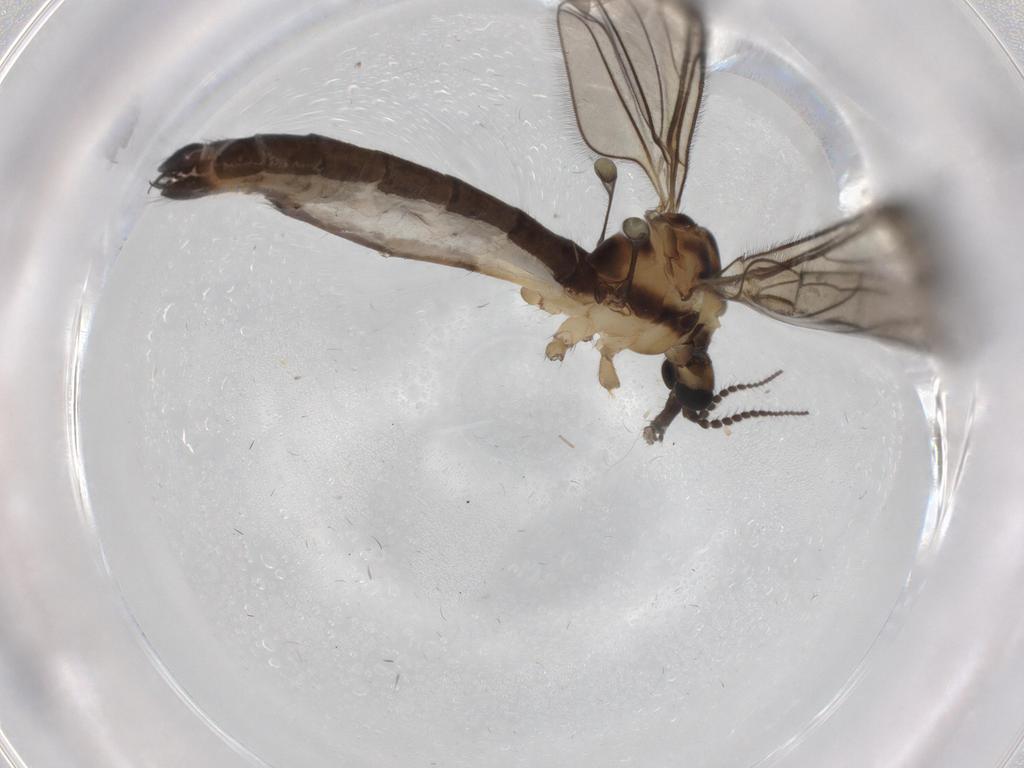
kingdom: Animalia
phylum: Arthropoda
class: Insecta
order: Diptera
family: Limoniidae
